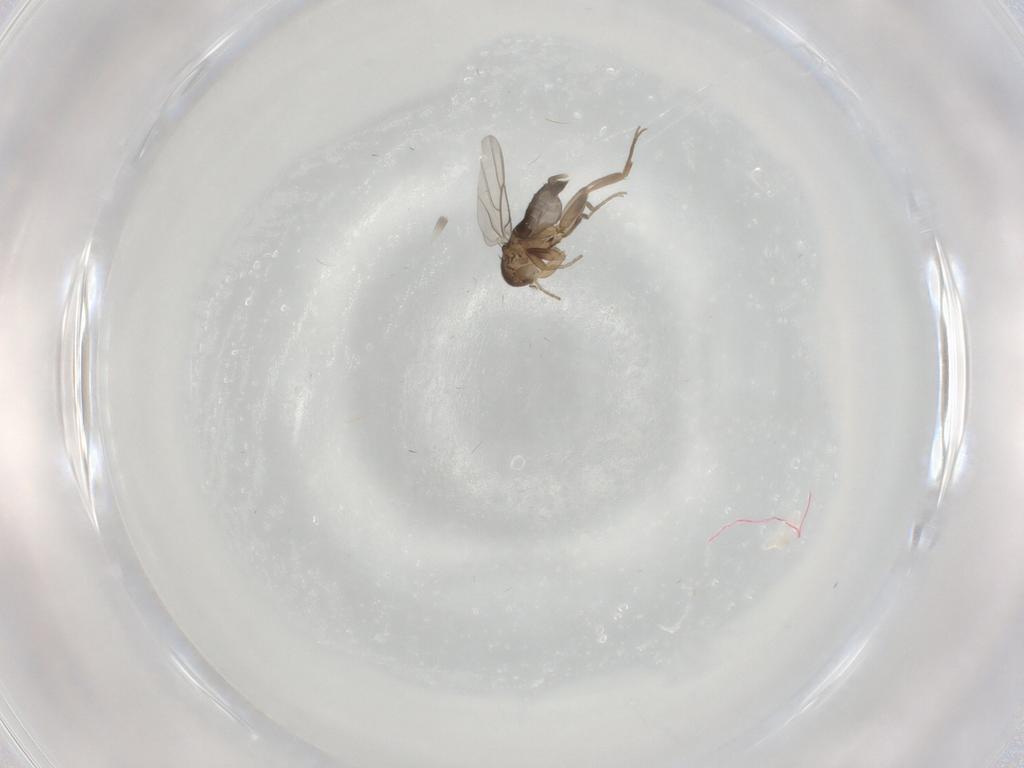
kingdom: Animalia
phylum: Arthropoda
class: Insecta
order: Diptera
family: Phoridae
